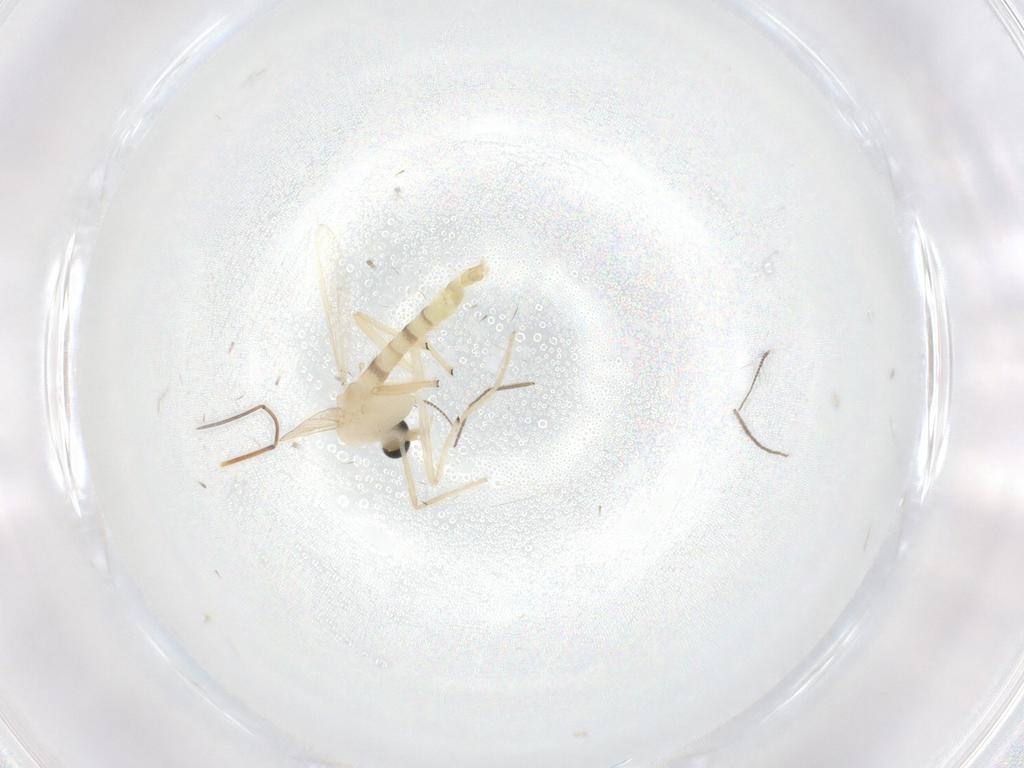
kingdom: Animalia
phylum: Arthropoda
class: Insecta
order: Diptera
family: Chironomidae
